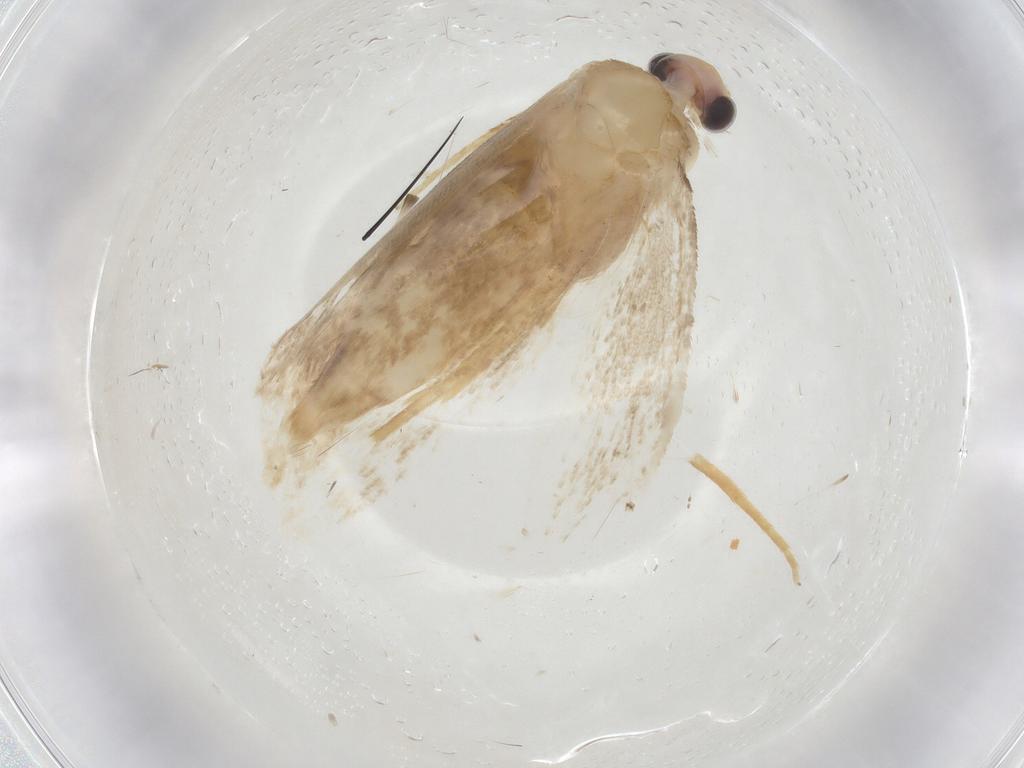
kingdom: Animalia
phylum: Arthropoda
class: Insecta
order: Lepidoptera
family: Tineidae
